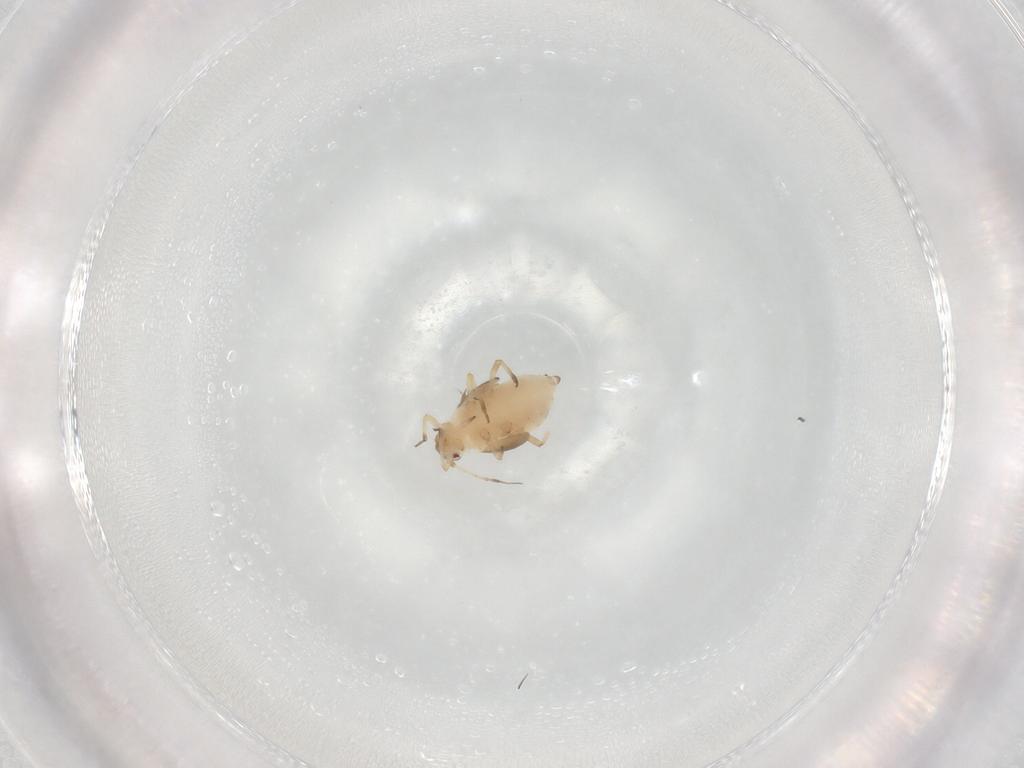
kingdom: Animalia
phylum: Arthropoda
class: Insecta
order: Hemiptera
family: Aphididae
